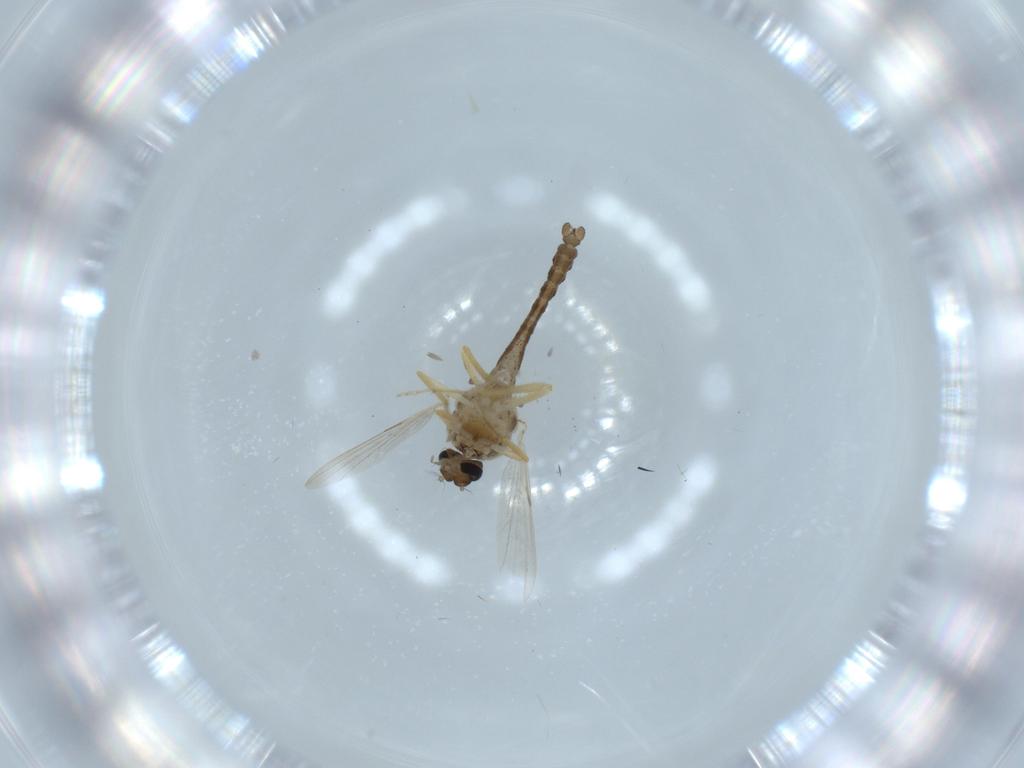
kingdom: Animalia
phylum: Arthropoda
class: Insecta
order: Diptera
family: Ceratopogonidae
